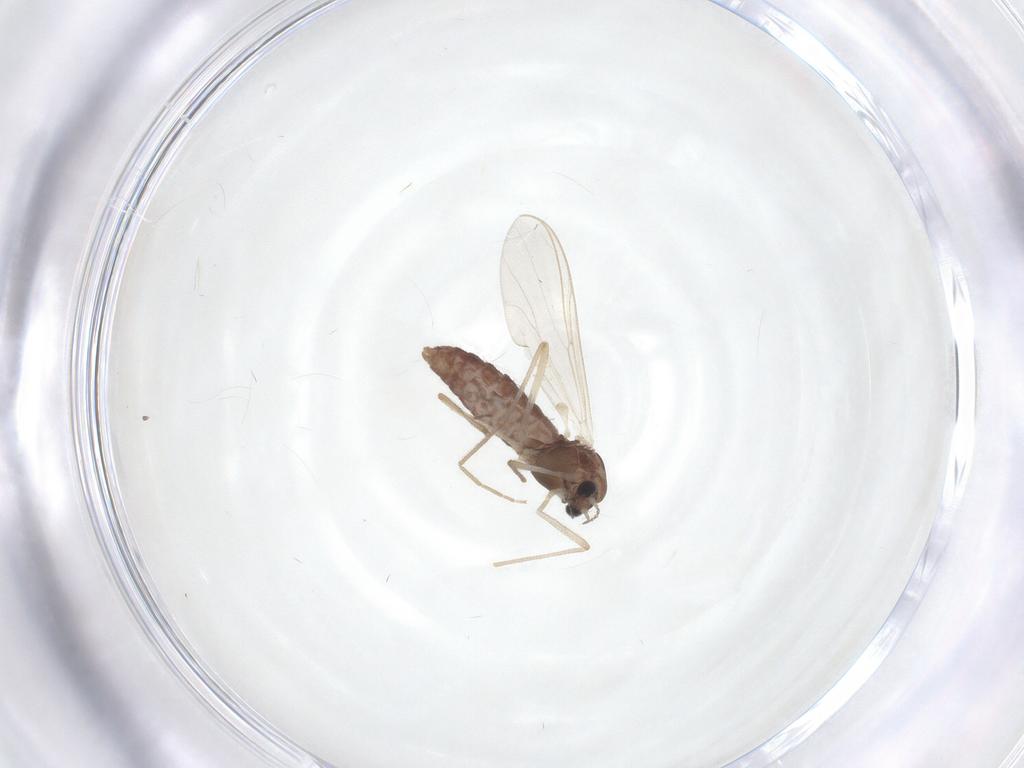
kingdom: Animalia
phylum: Arthropoda
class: Insecta
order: Diptera
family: Chironomidae
